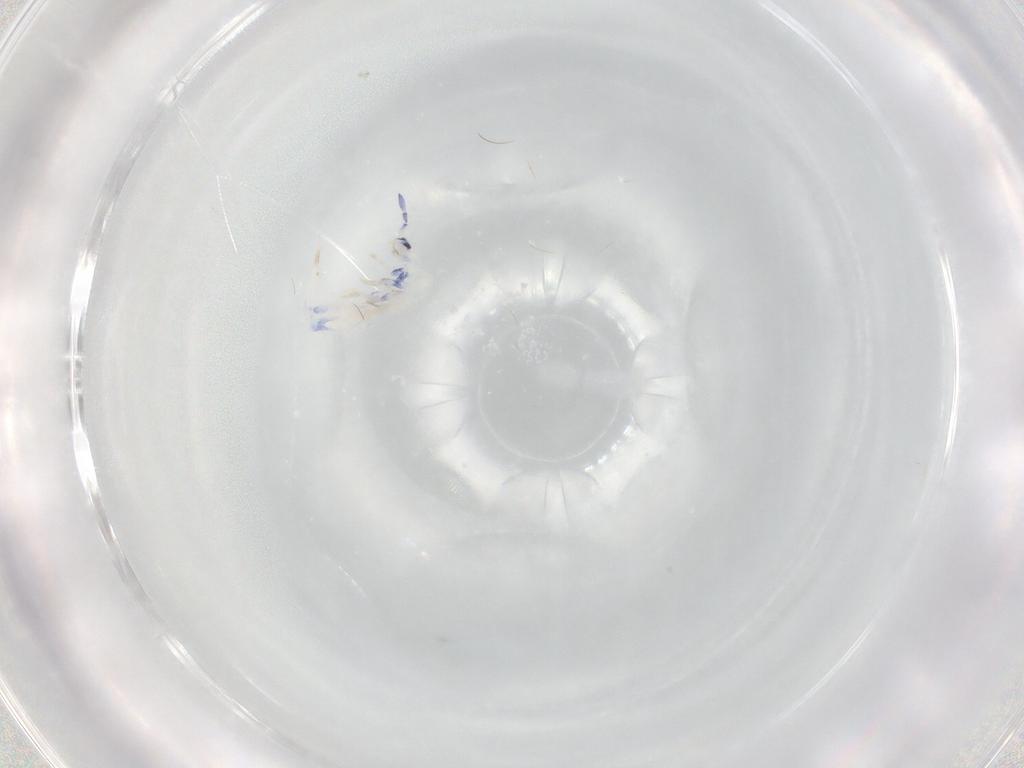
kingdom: Animalia
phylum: Arthropoda
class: Collembola
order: Entomobryomorpha
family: Entomobryidae
